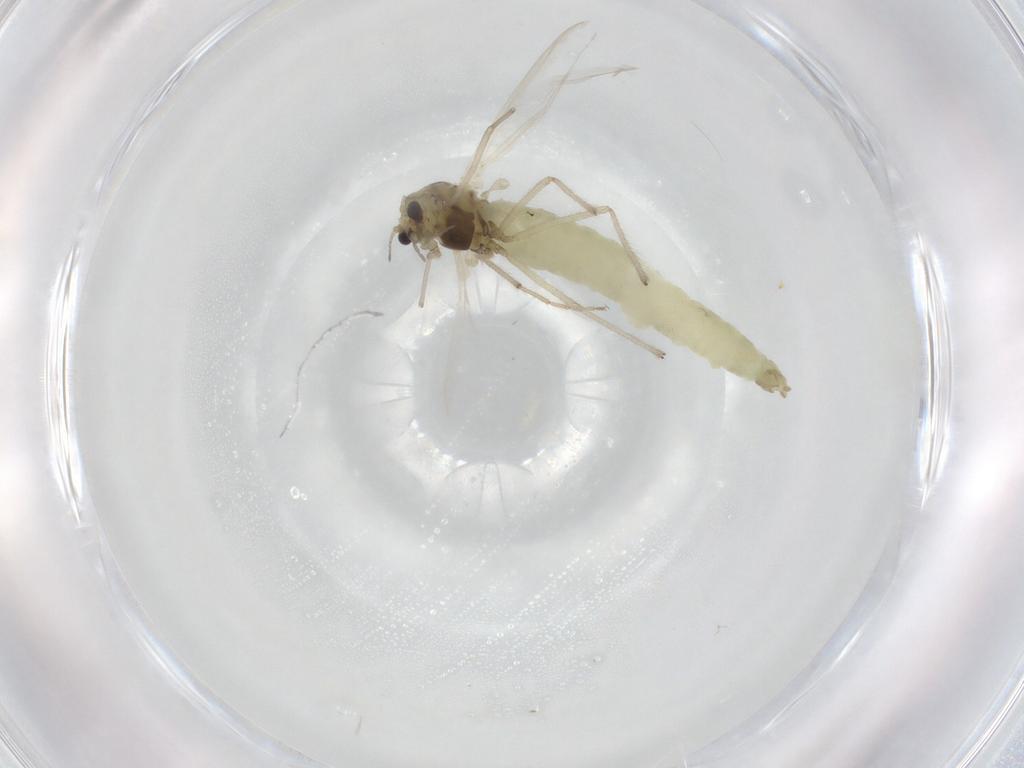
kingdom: Animalia
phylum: Arthropoda
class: Insecta
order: Diptera
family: Chironomidae
